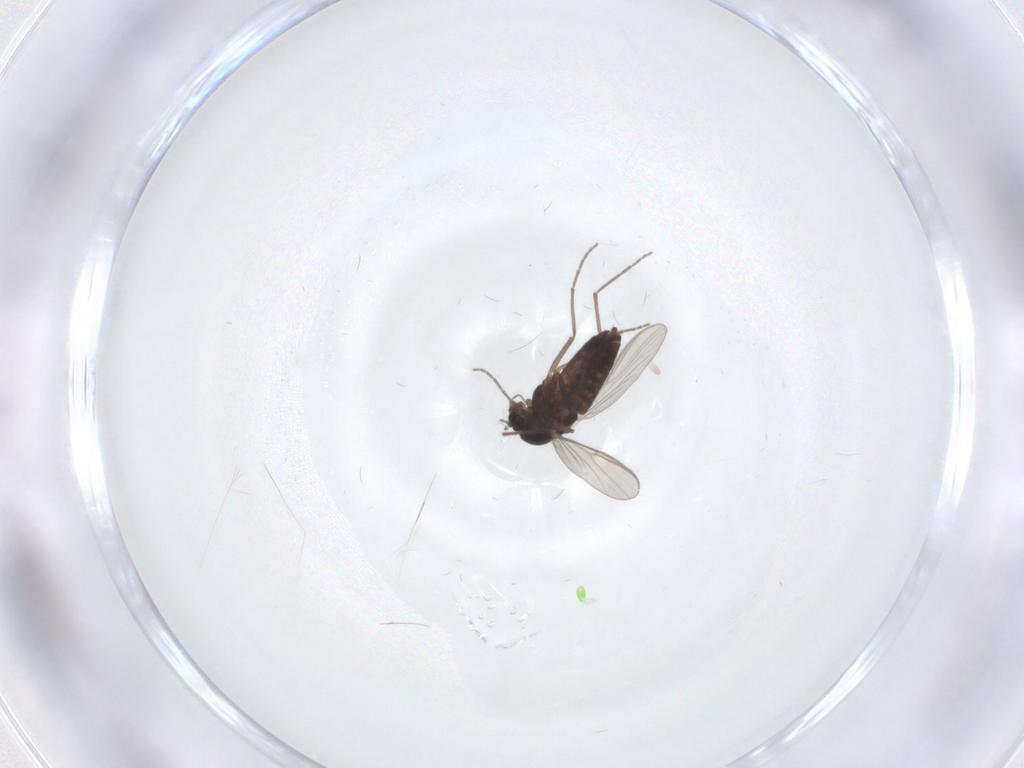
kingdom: Animalia
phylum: Arthropoda
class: Insecta
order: Diptera
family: Chironomidae
